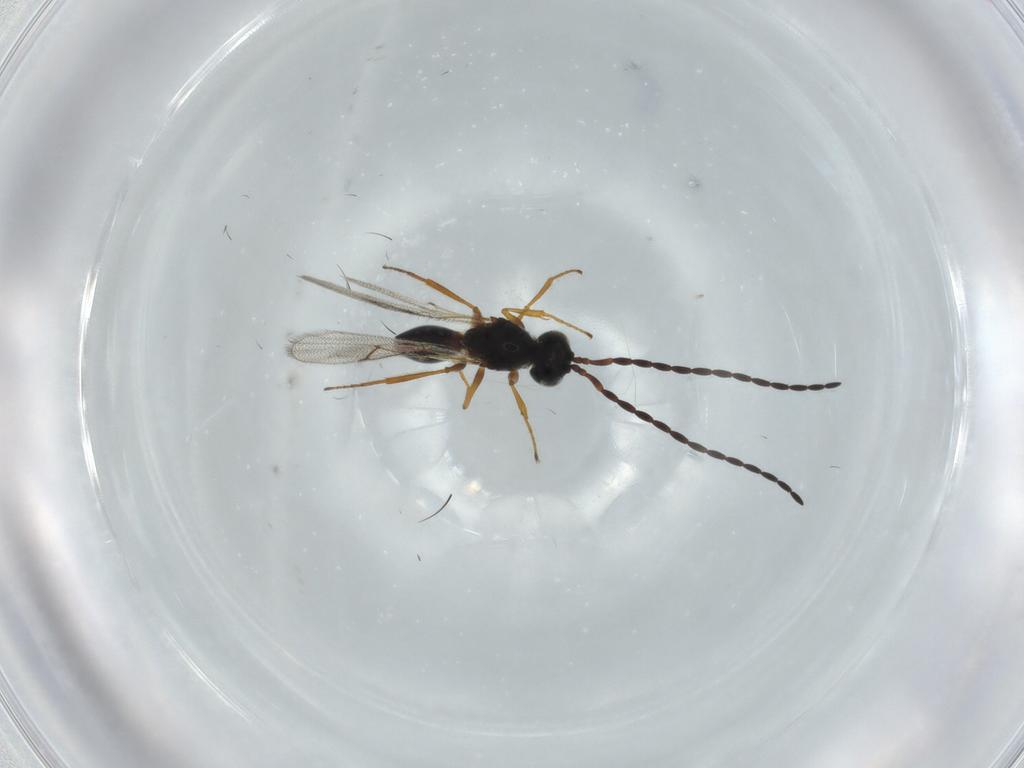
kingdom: Animalia
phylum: Arthropoda
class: Insecta
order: Hymenoptera
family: Figitidae
